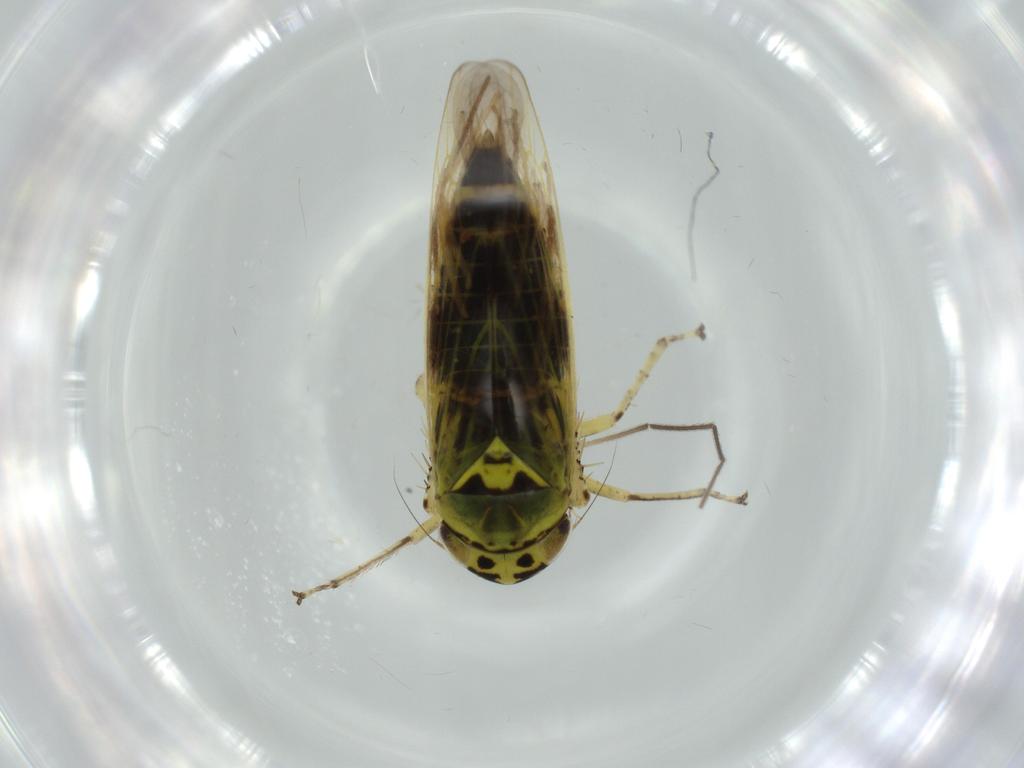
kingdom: Animalia
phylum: Arthropoda
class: Insecta
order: Hemiptera
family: Cicadellidae
